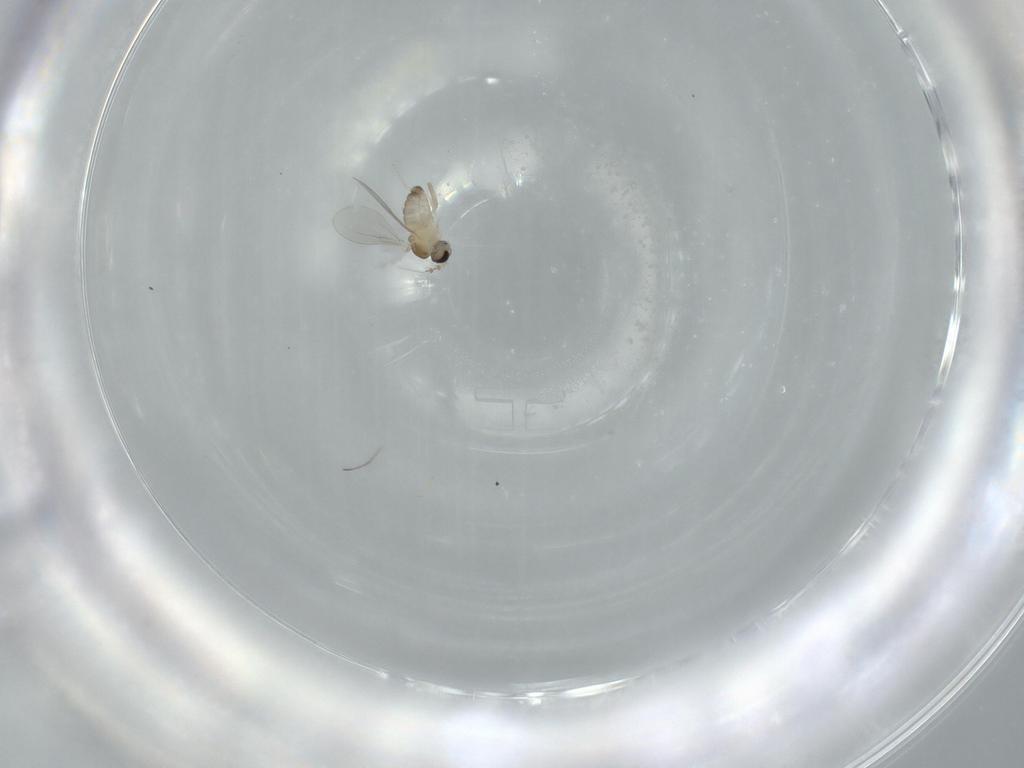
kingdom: Animalia
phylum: Arthropoda
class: Insecta
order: Diptera
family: Cecidomyiidae
